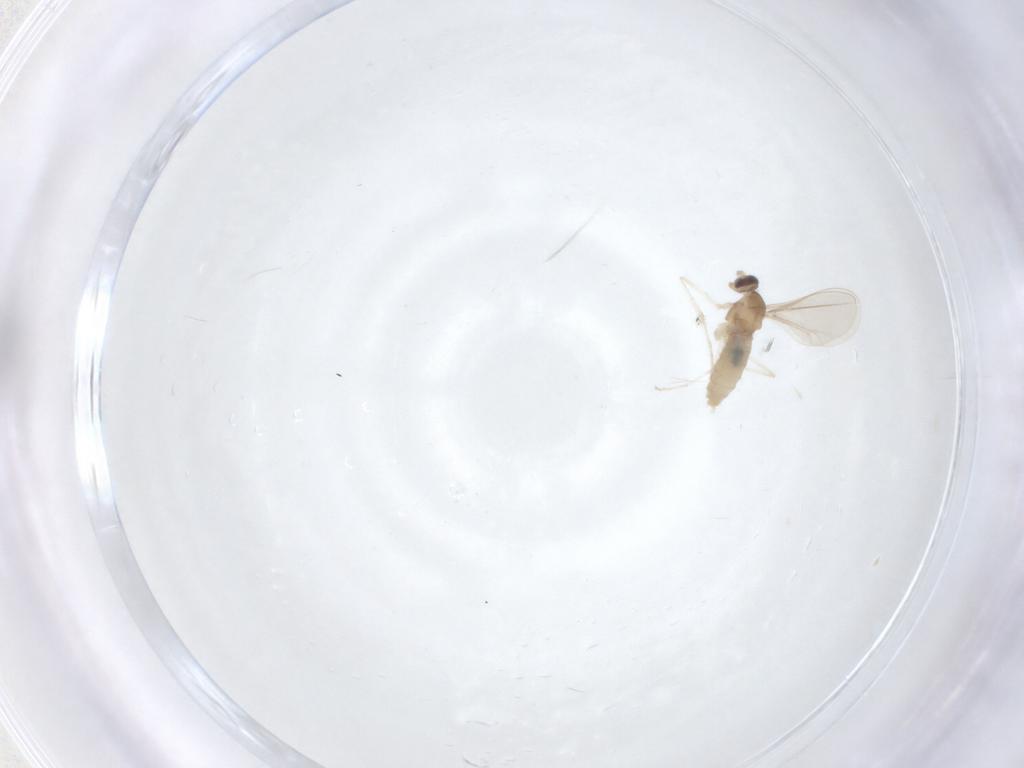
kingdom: Animalia
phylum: Arthropoda
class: Insecta
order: Diptera
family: Cecidomyiidae
